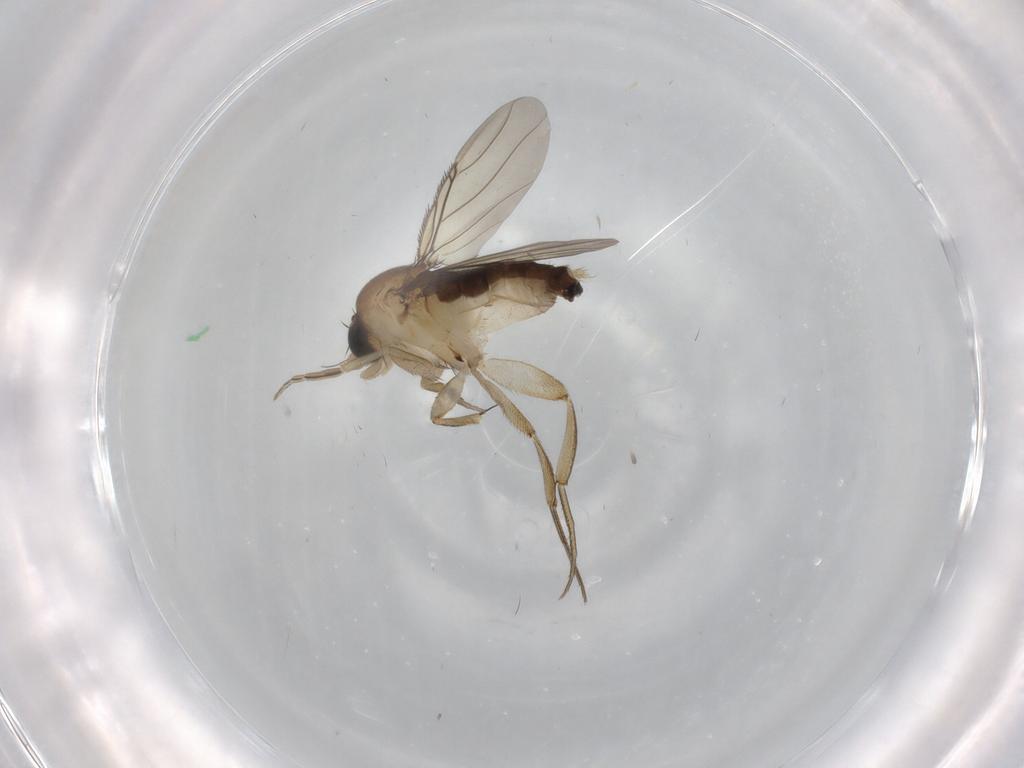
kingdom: Animalia
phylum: Arthropoda
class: Insecta
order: Diptera
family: Phoridae
